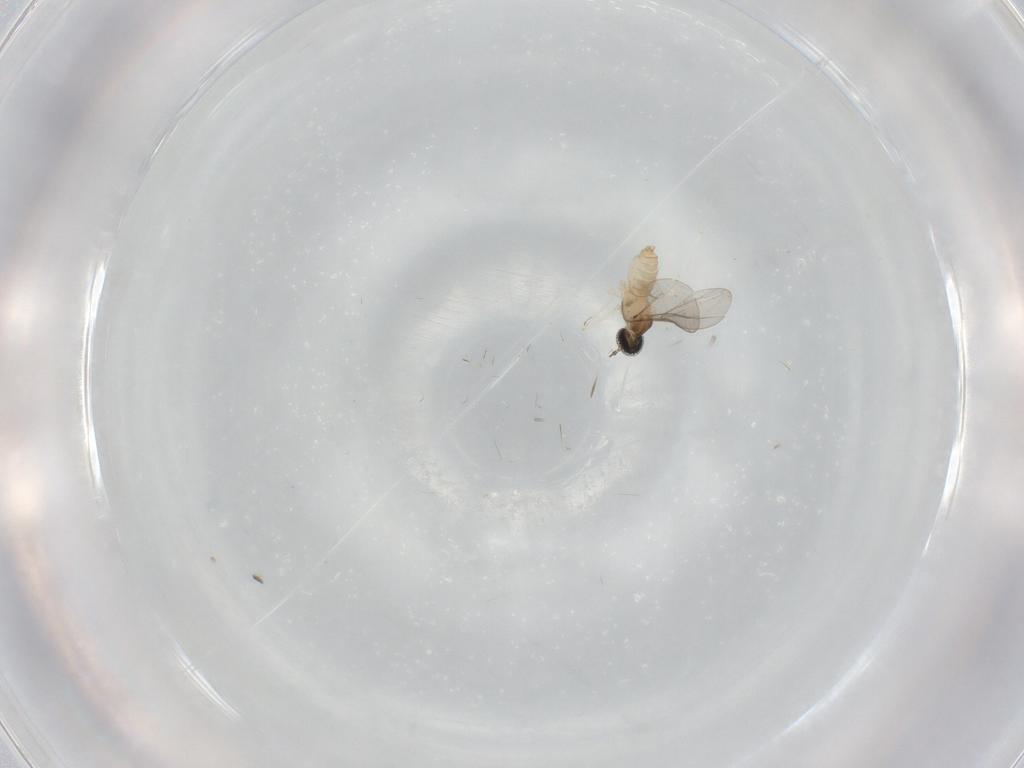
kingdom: Animalia
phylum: Arthropoda
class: Insecta
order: Diptera
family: Cecidomyiidae
